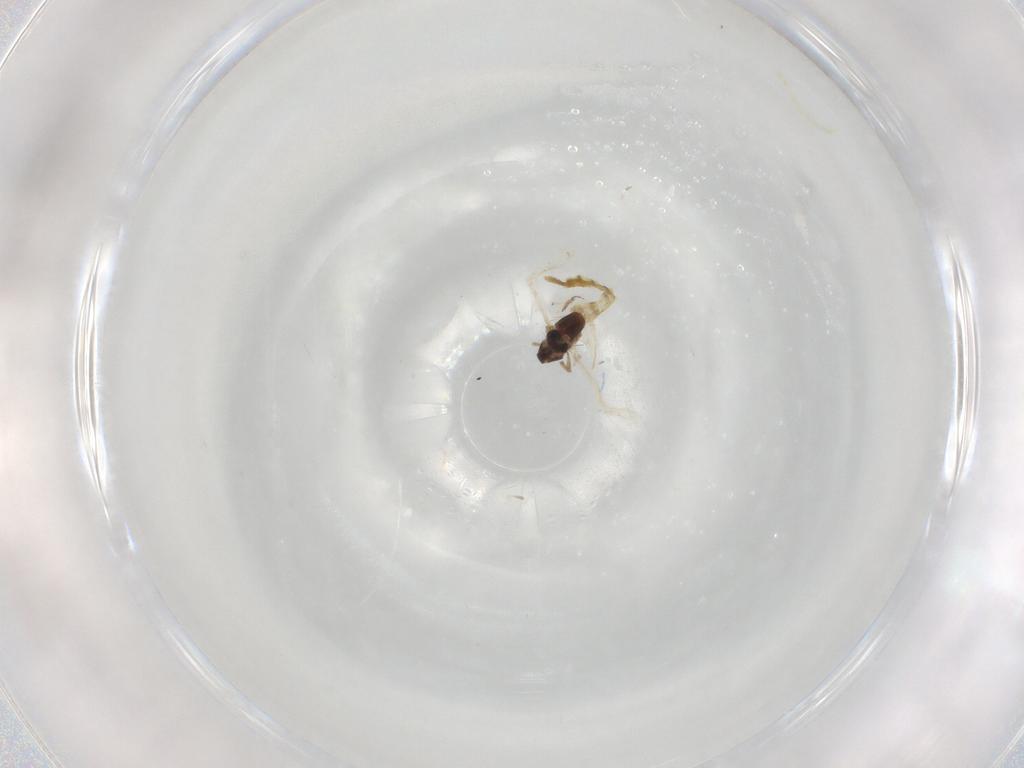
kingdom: Animalia
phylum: Arthropoda
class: Insecta
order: Diptera
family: Chironomidae
